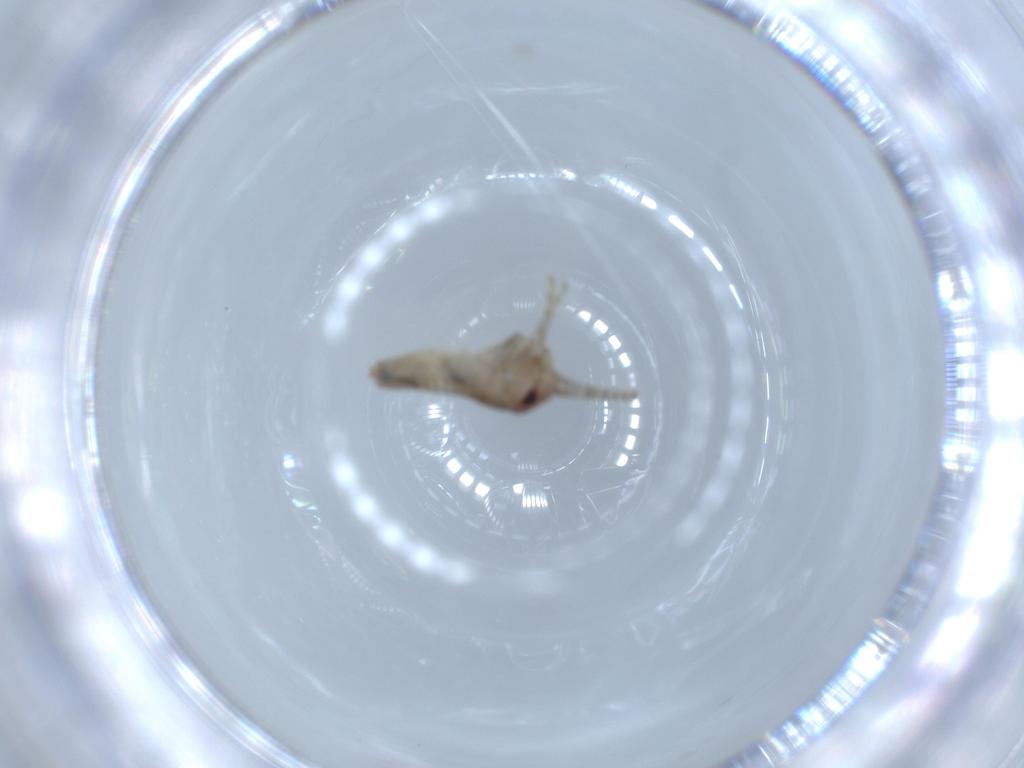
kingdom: Animalia
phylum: Arthropoda
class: Insecta
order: Orthoptera
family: Gryllidae
